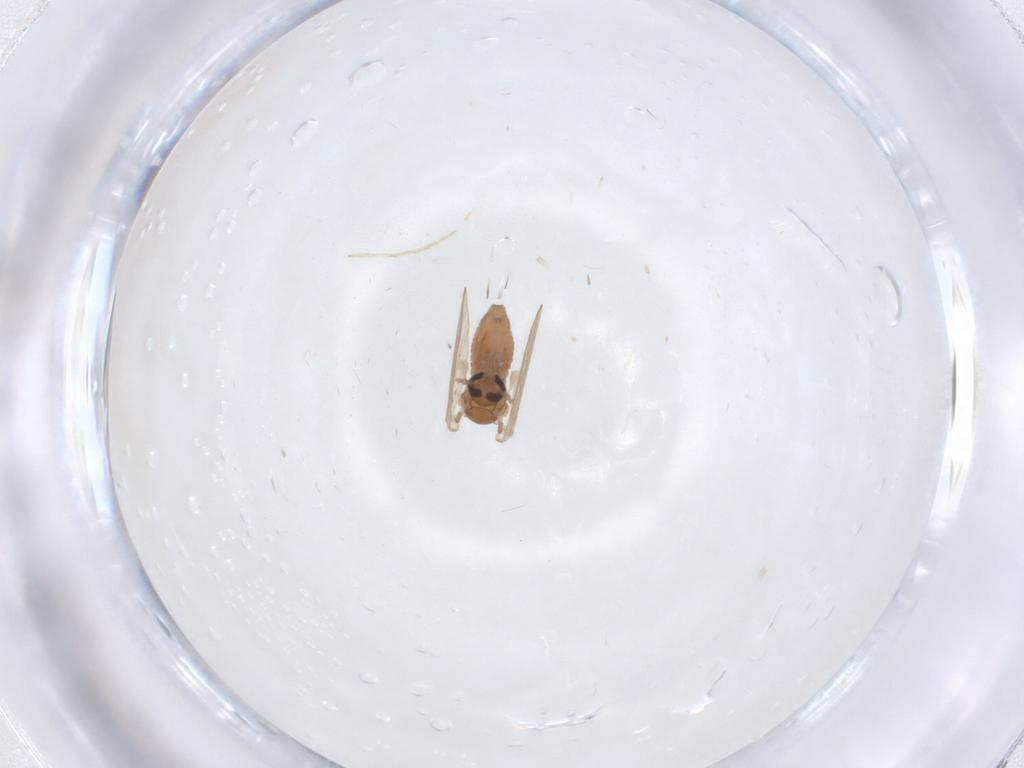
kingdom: Animalia
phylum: Arthropoda
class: Insecta
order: Diptera
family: Psychodidae
